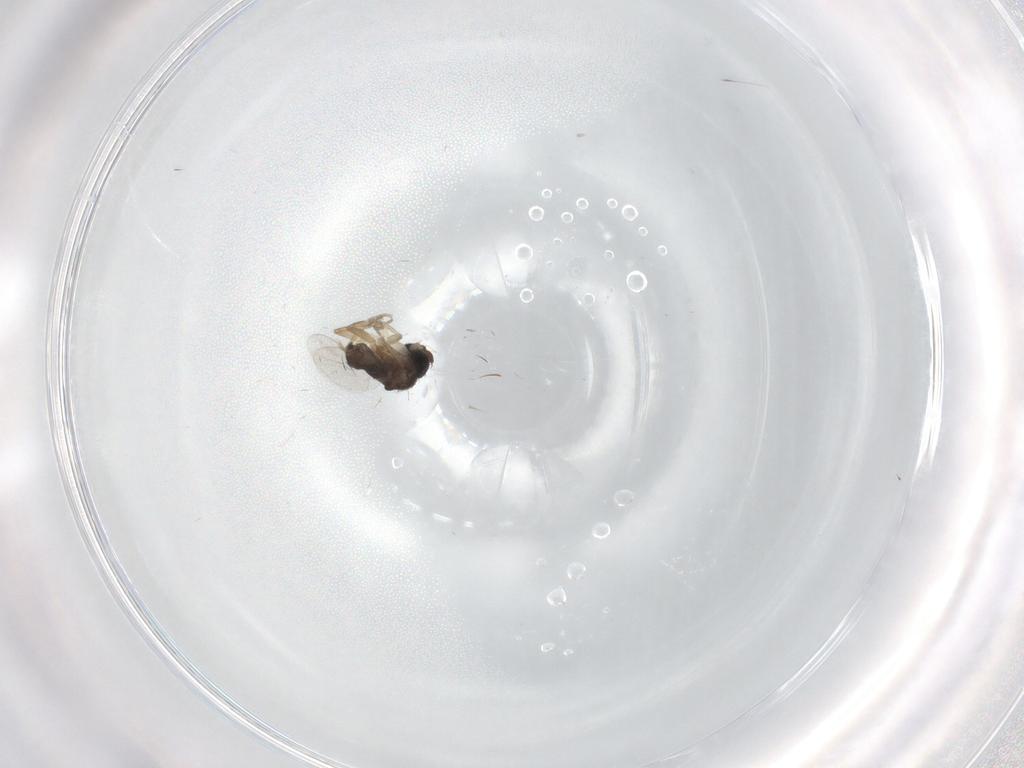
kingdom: Animalia
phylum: Arthropoda
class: Insecta
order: Diptera
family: Phoridae
